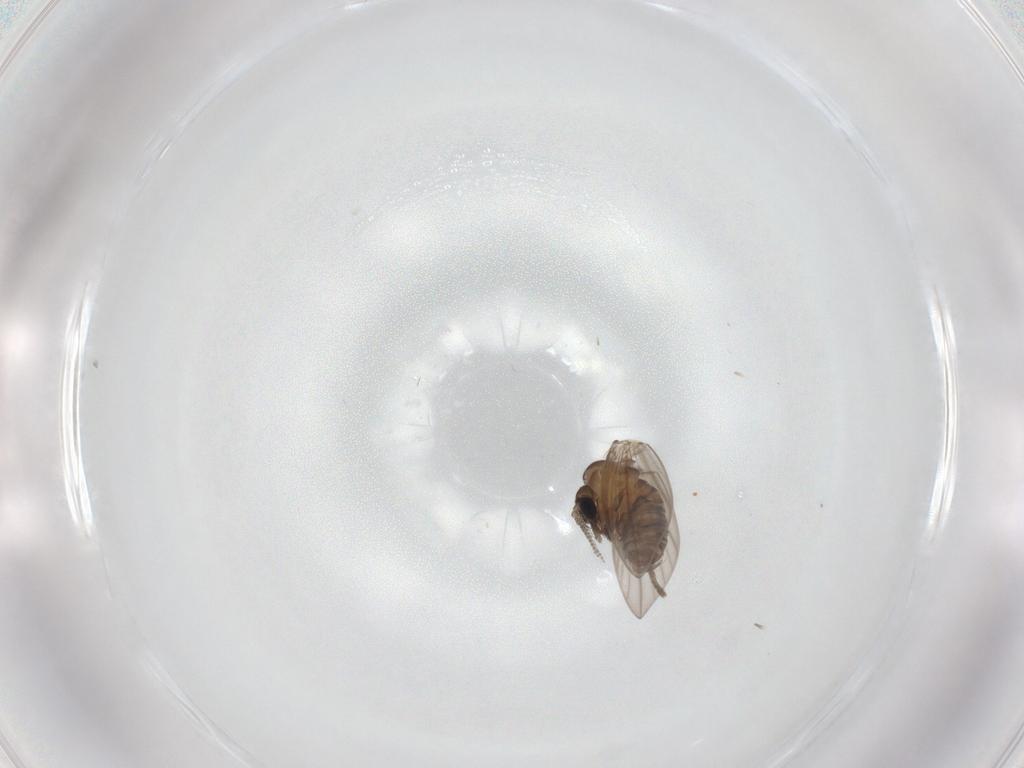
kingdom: Animalia
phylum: Arthropoda
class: Insecta
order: Diptera
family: Psychodidae
